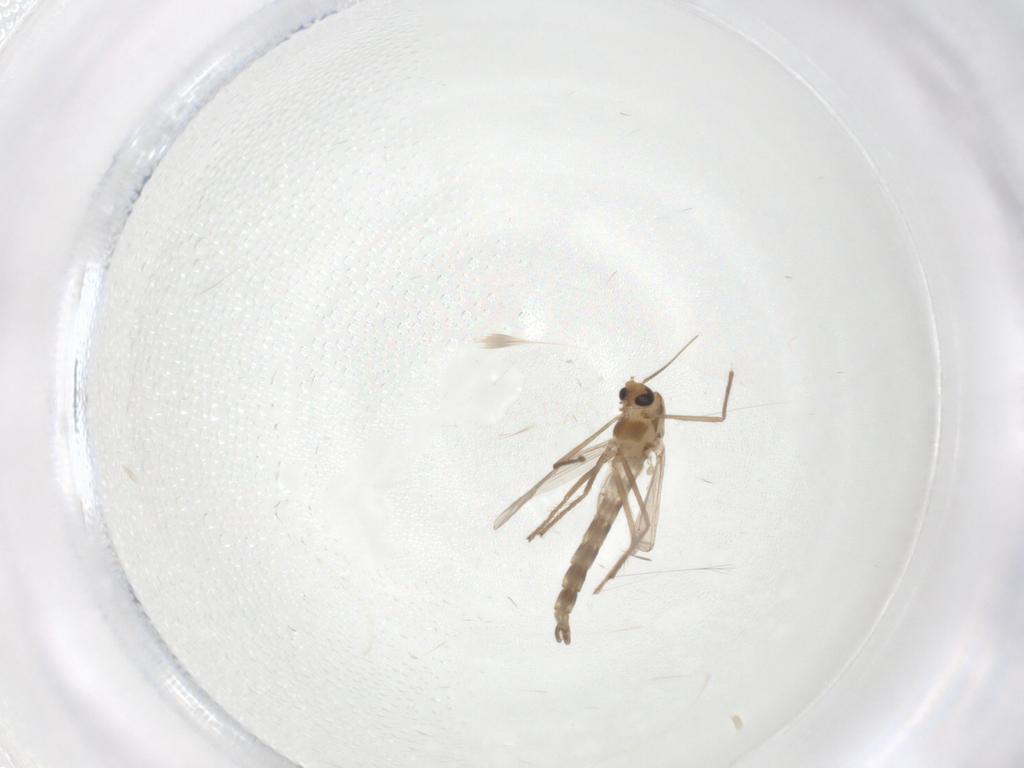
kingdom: Animalia
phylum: Arthropoda
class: Insecta
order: Diptera
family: Chironomidae
